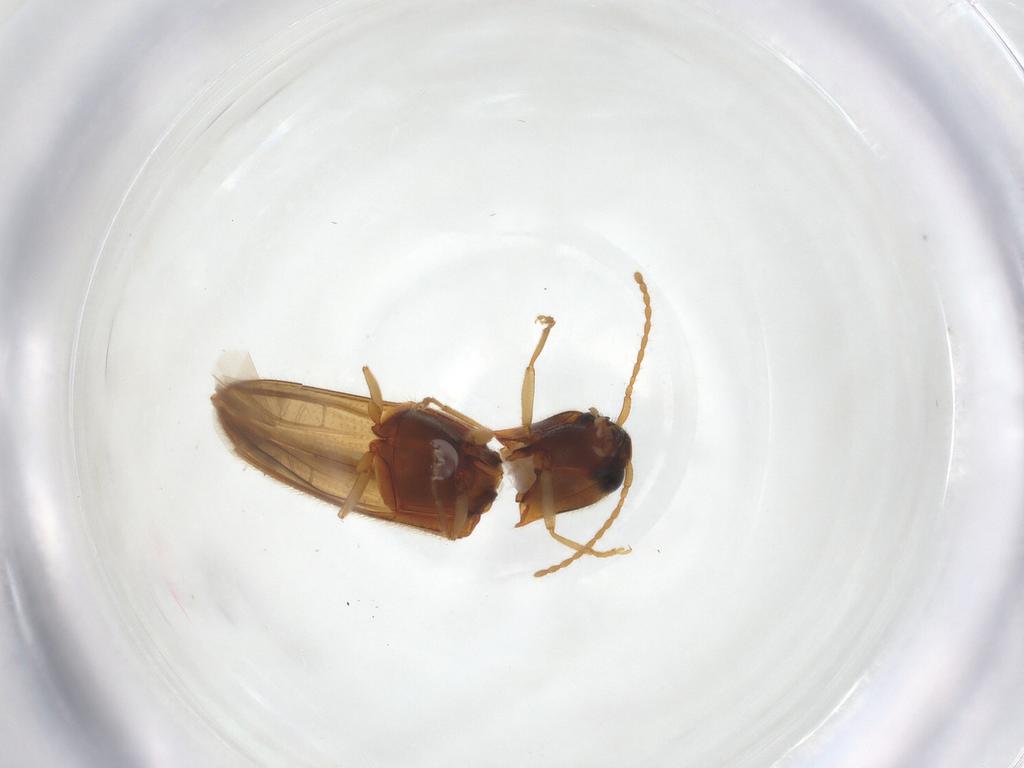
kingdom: Animalia
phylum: Arthropoda
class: Insecta
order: Coleoptera
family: Elateridae
